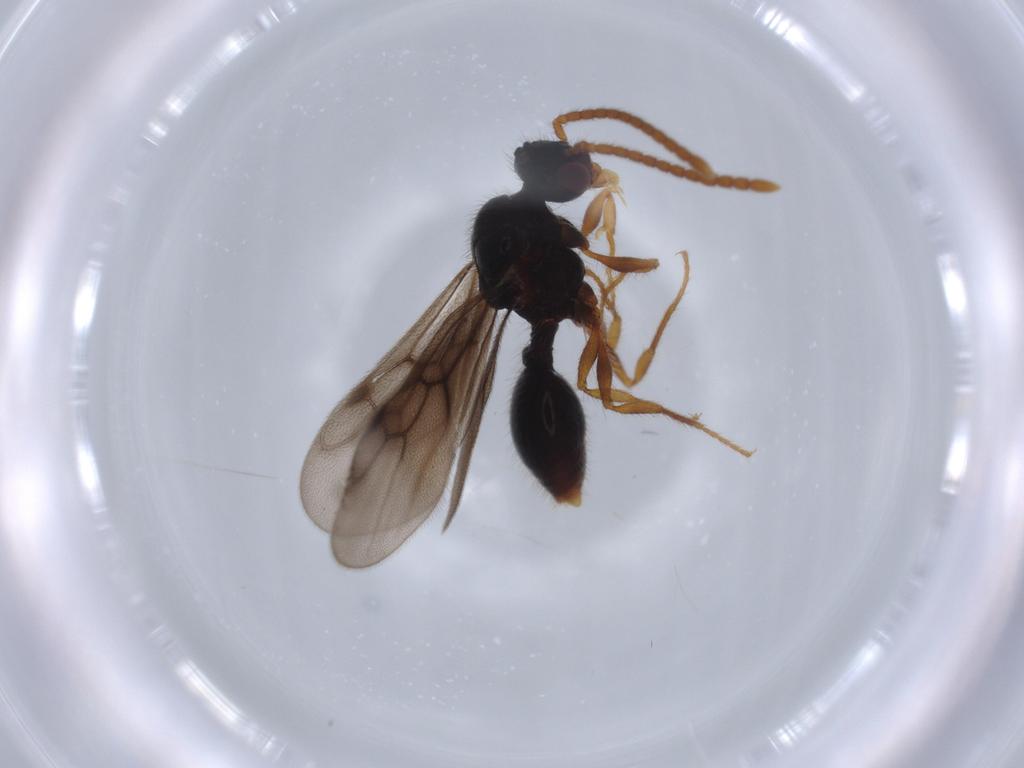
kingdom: Animalia
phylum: Arthropoda
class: Insecta
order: Hymenoptera
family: Formicidae
